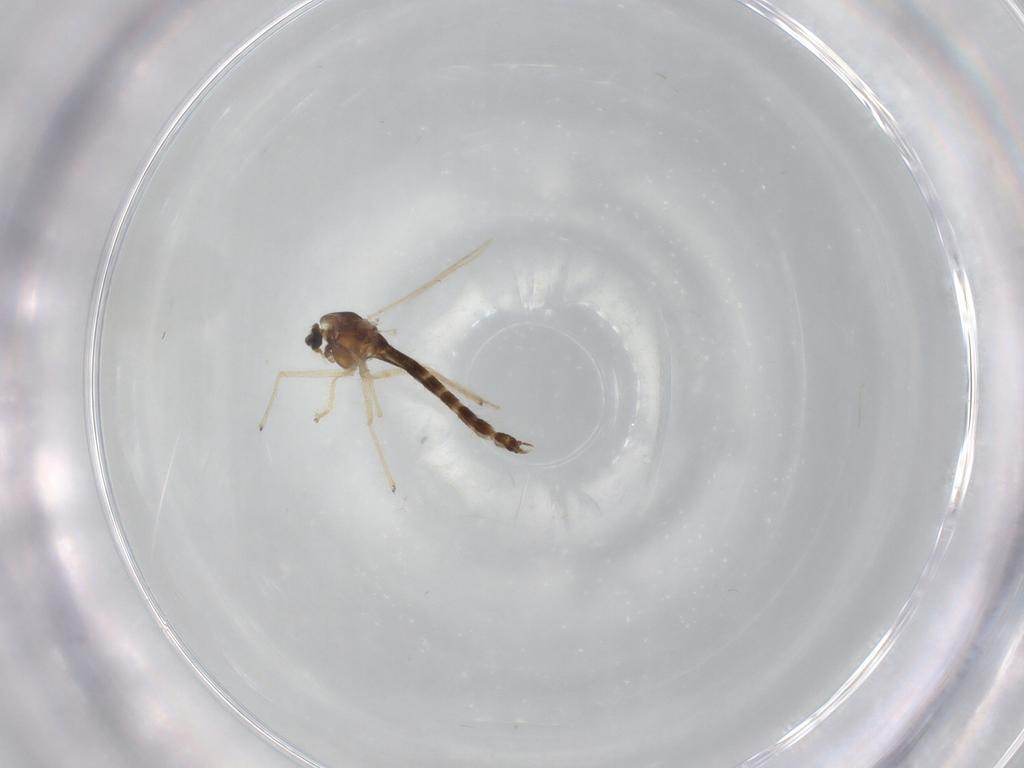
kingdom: Animalia
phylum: Arthropoda
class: Insecta
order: Diptera
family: Chironomidae
